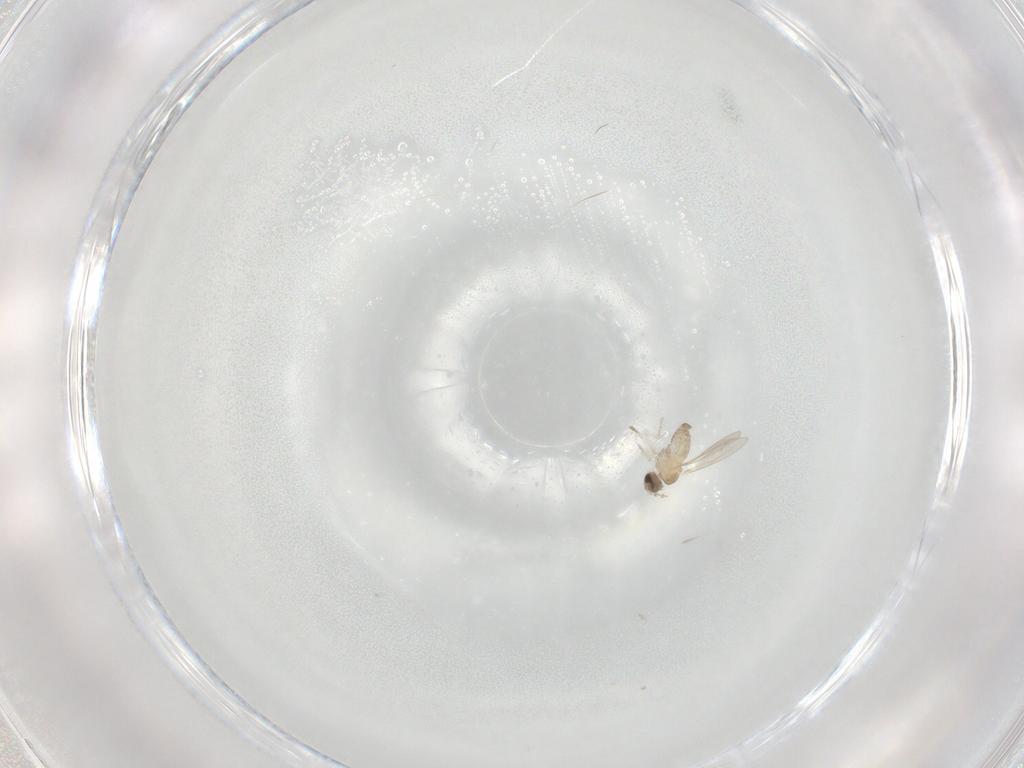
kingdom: Animalia
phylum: Arthropoda
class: Insecta
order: Diptera
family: Cecidomyiidae
